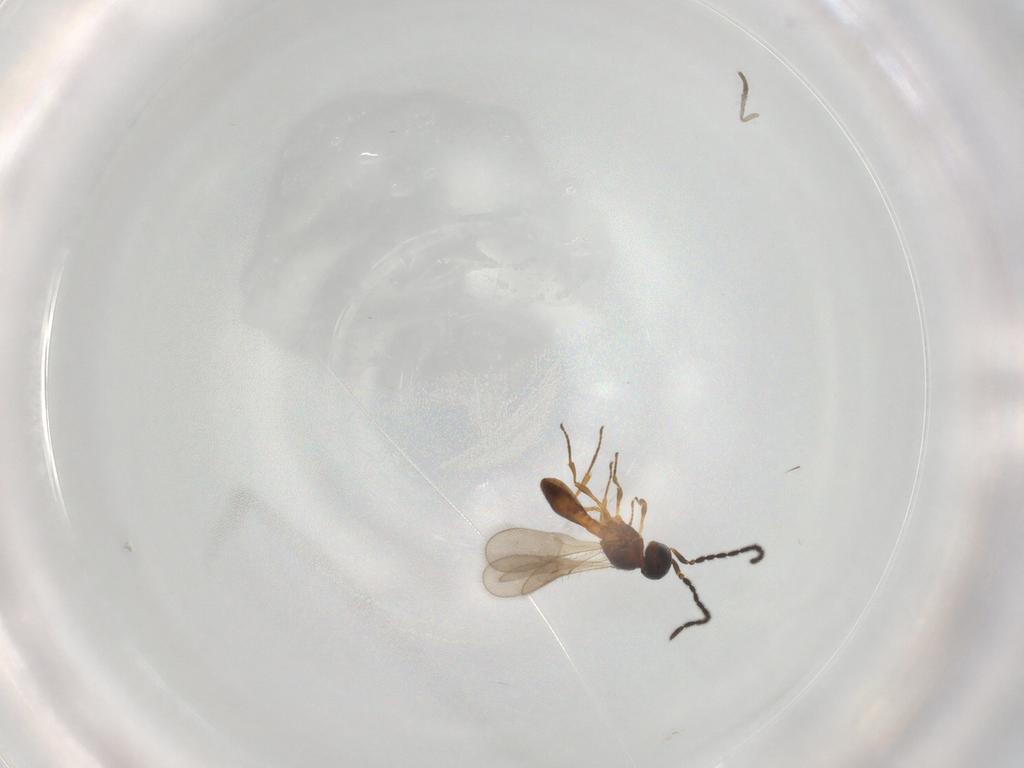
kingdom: Animalia
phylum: Arthropoda
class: Insecta
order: Hymenoptera
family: Scelionidae
